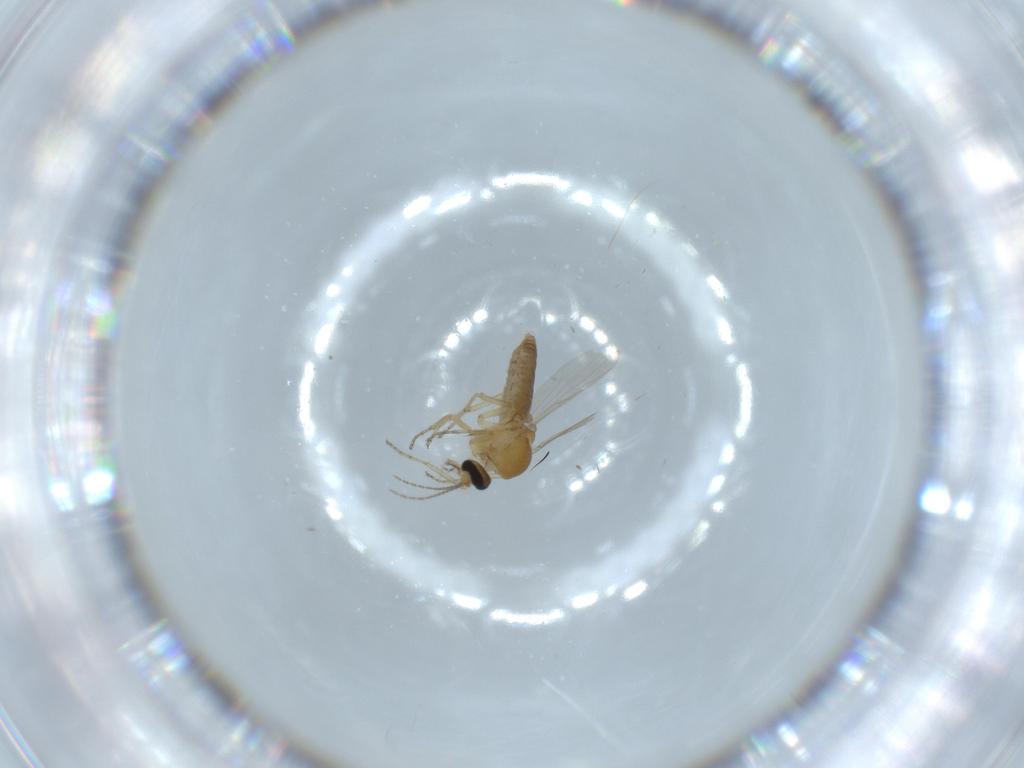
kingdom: Animalia
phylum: Arthropoda
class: Insecta
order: Diptera
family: Ceratopogonidae
